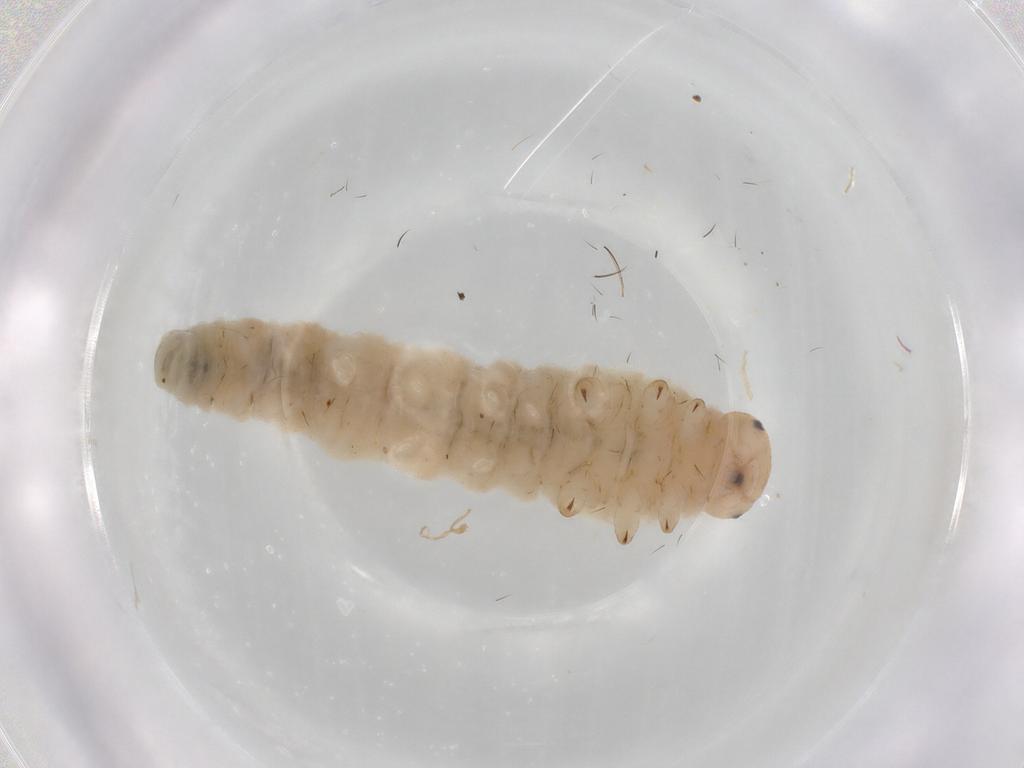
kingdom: Animalia
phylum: Arthropoda
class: Insecta
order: Hymenoptera
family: Tenthredinidae
